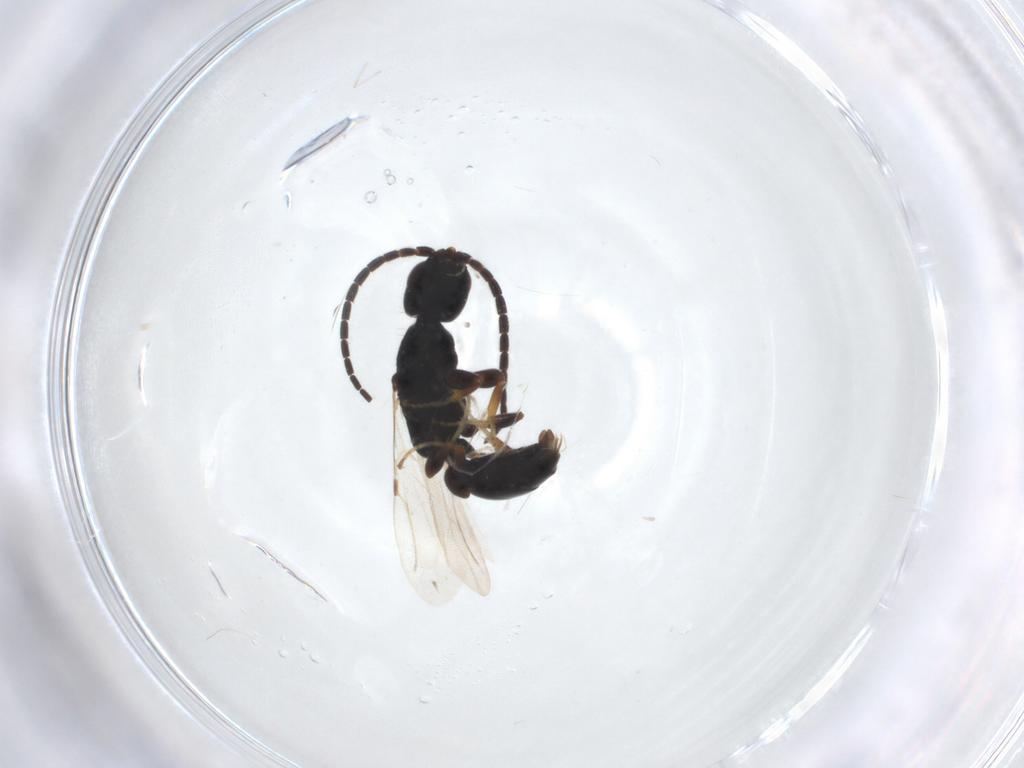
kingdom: Animalia
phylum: Arthropoda
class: Insecta
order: Hymenoptera
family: Bethylidae
